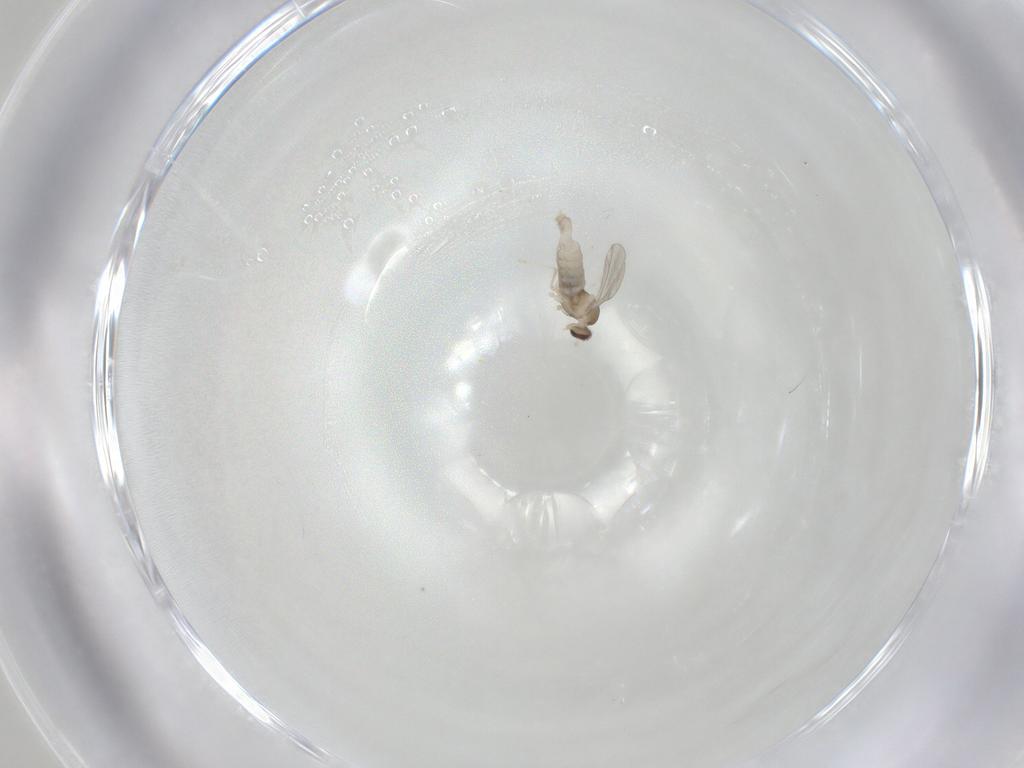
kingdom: Animalia
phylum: Arthropoda
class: Insecta
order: Diptera
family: Cecidomyiidae
